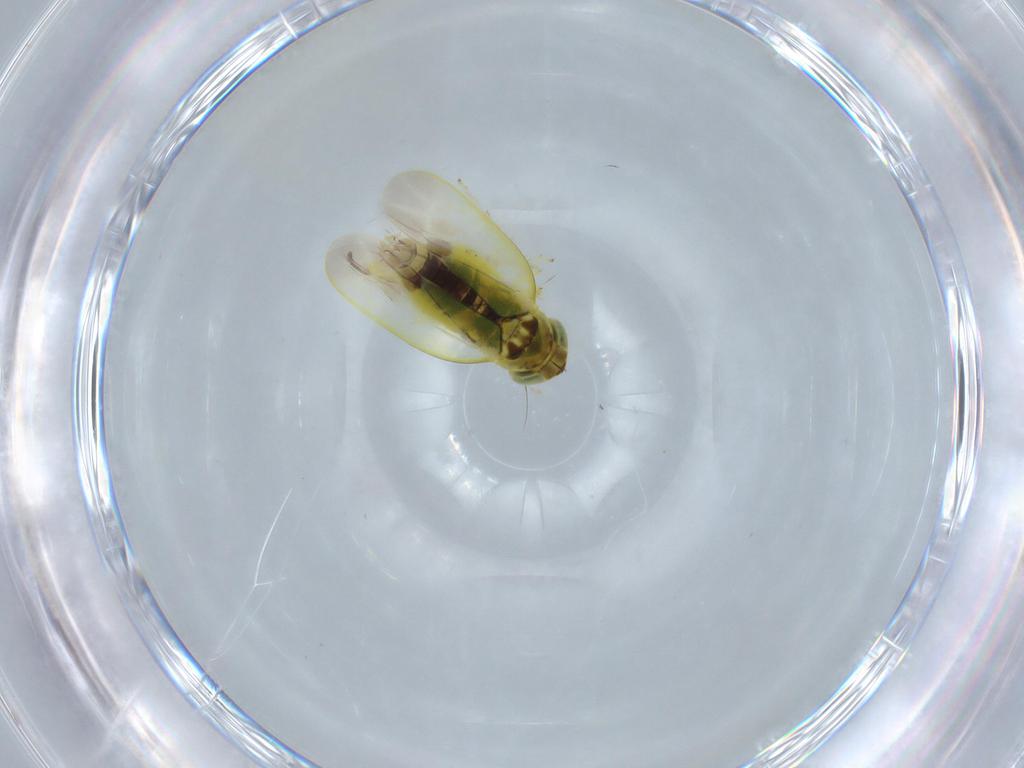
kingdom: Animalia
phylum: Arthropoda
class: Insecta
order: Hemiptera
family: Cicadellidae
